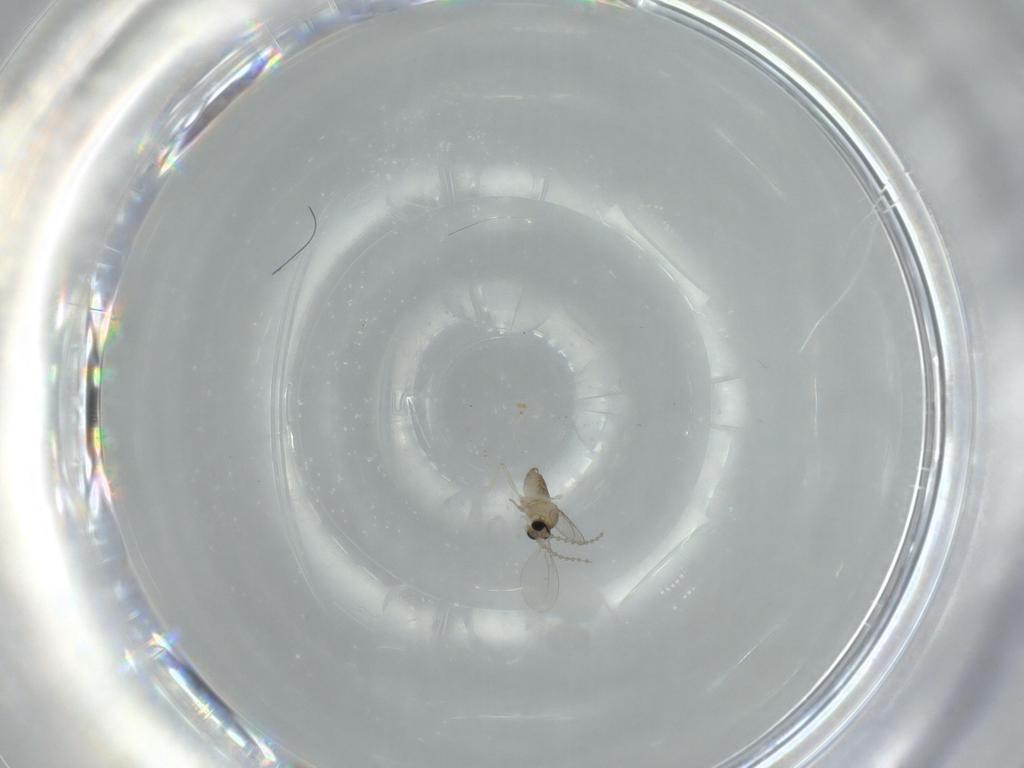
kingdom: Animalia
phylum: Arthropoda
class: Insecta
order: Diptera
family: Cecidomyiidae
